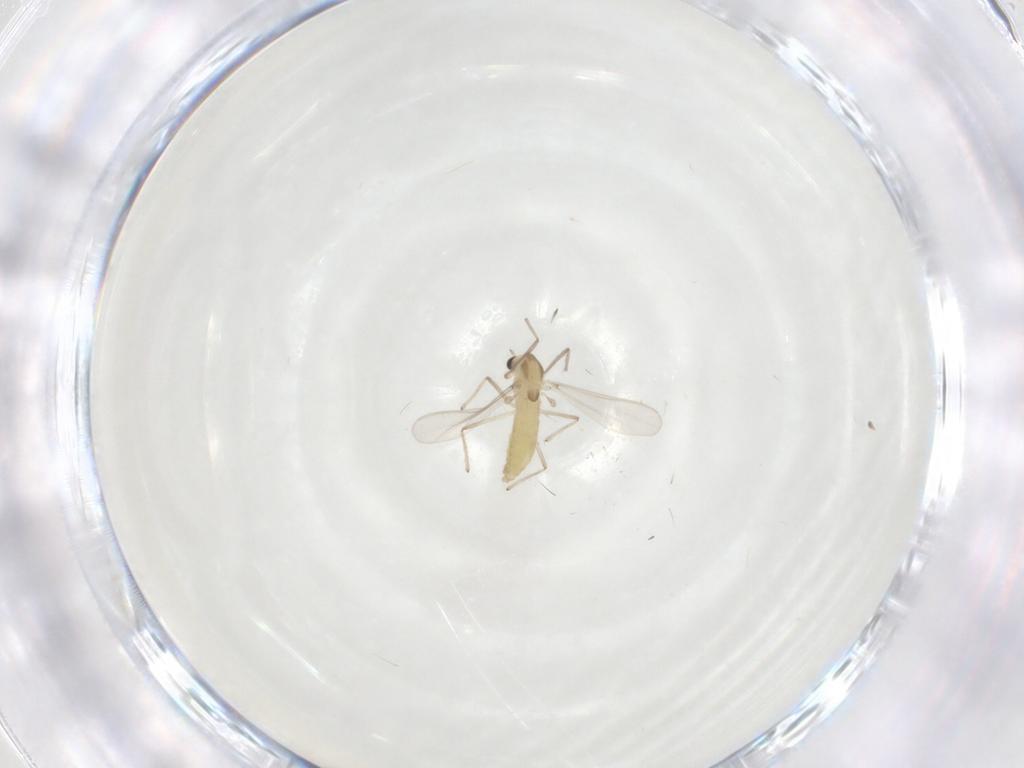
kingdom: Animalia
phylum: Arthropoda
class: Insecta
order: Diptera
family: Chironomidae
